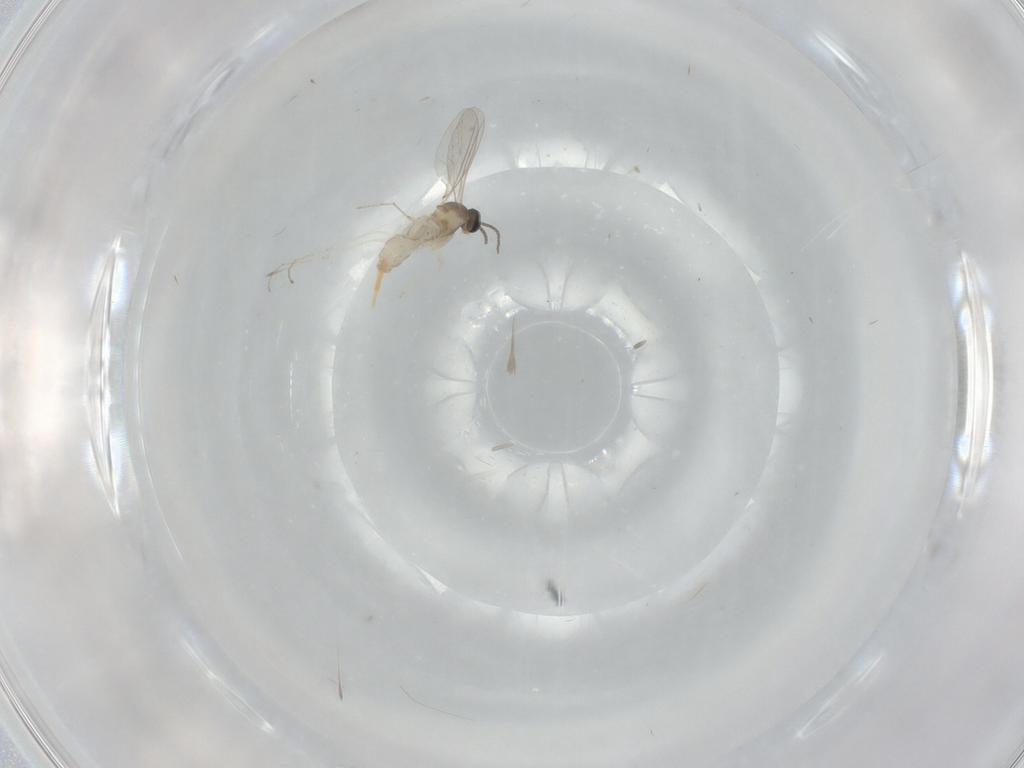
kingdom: Animalia
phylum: Arthropoda
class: Insecta
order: Diptera
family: Cecidomyiidae
